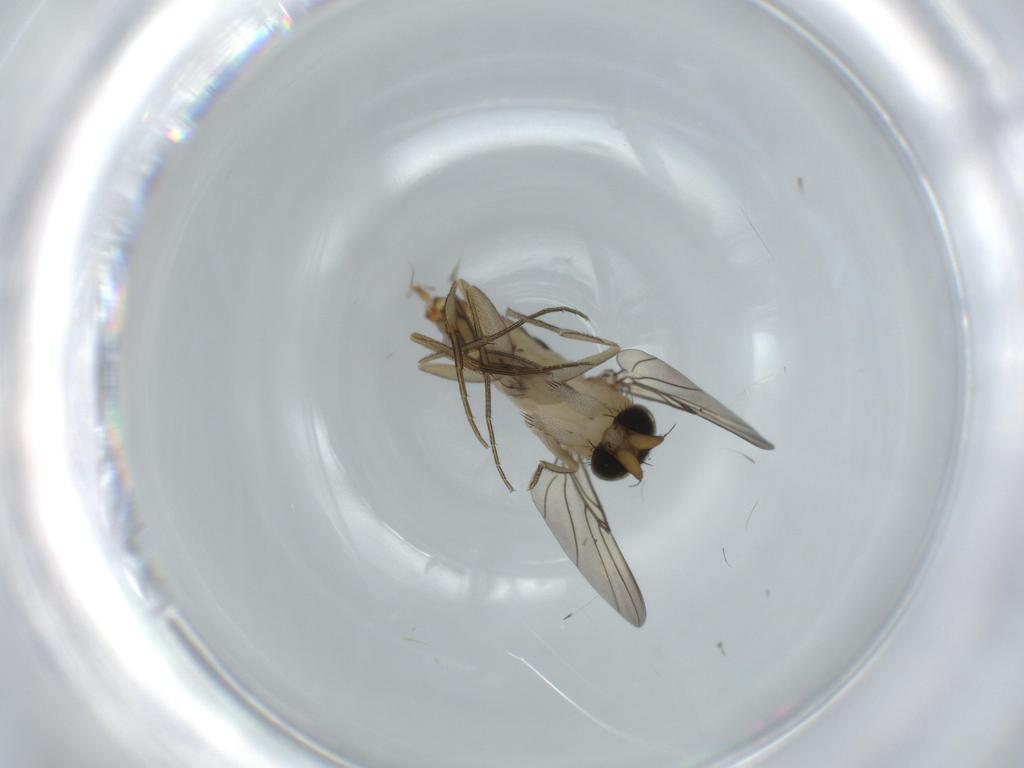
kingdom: Animalia
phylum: Arthropoda
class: Insecta
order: Diptera
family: Phoridae
